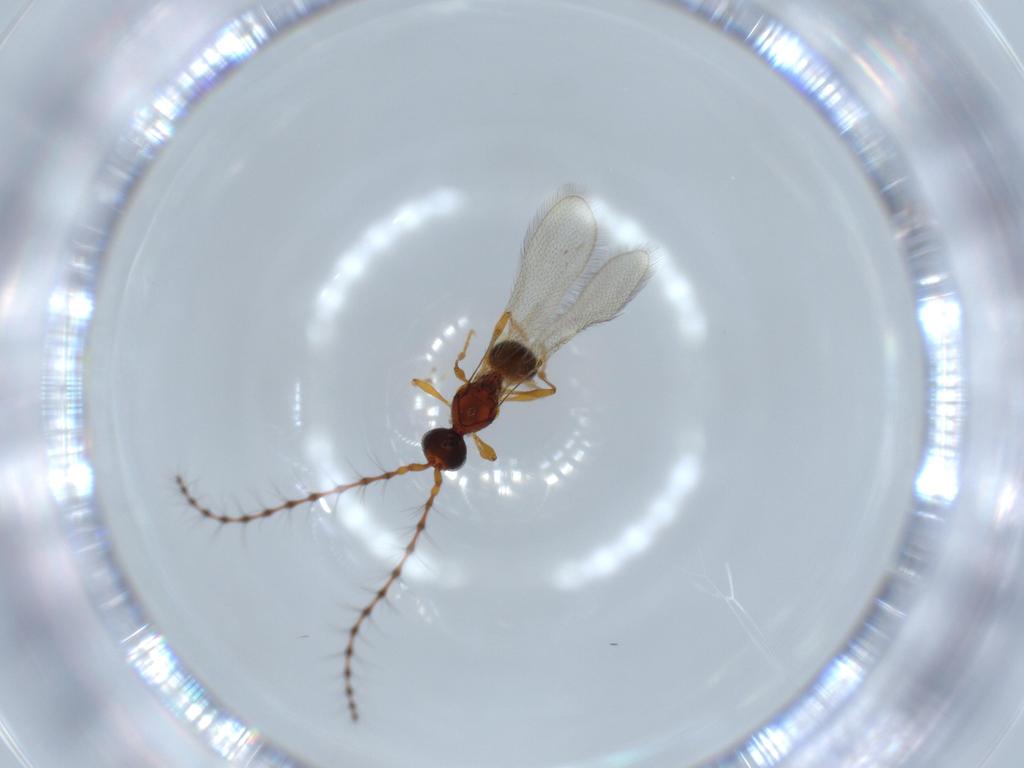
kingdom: Animalia
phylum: Arthropoda
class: Insecta
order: Hymenoptera
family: Diapriidae
